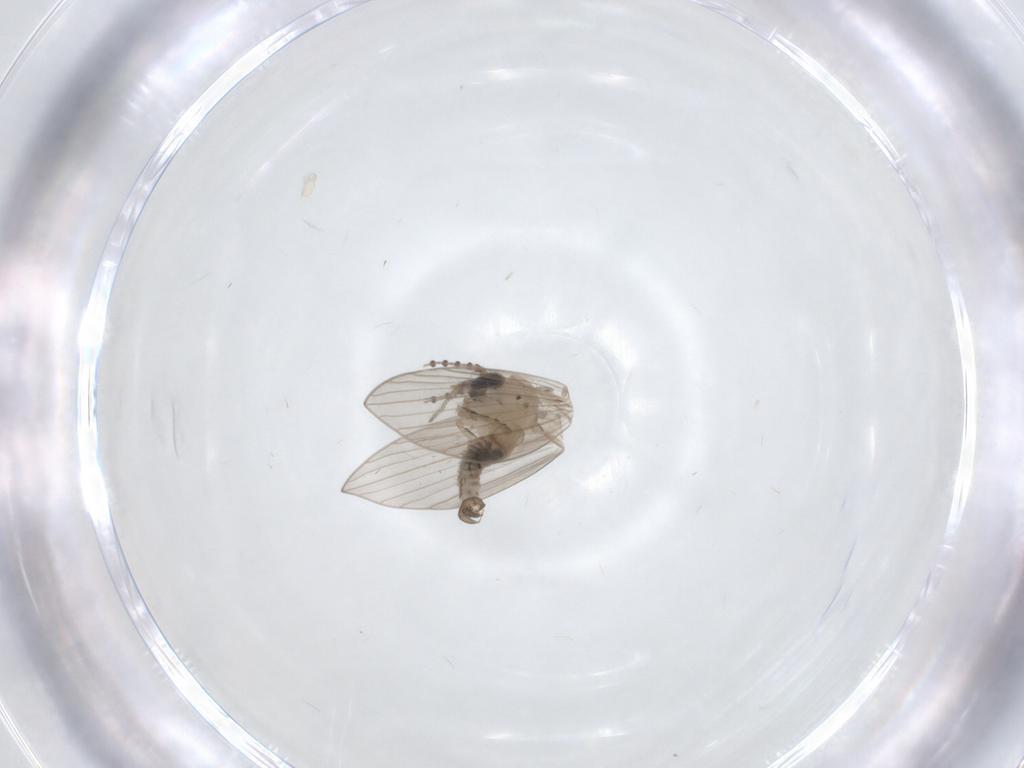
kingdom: Animalia
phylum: Arthropoda
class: Insecta
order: Diptera
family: Psychodidae
